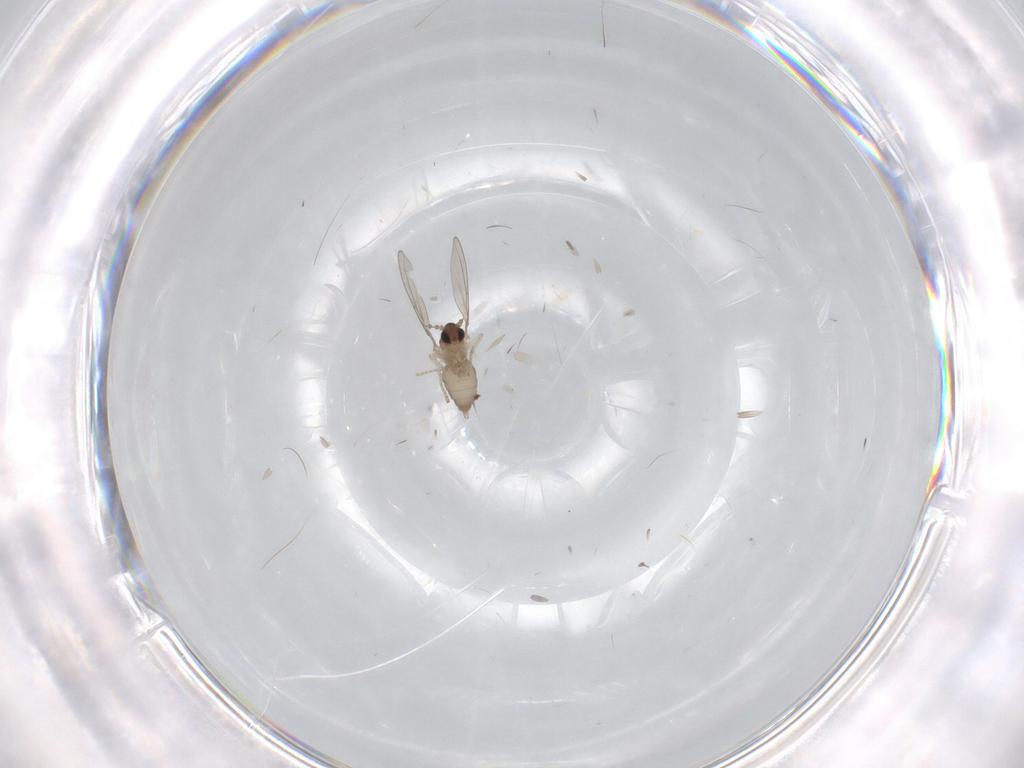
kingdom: Animalia
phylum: Arthropoda
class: Insecta
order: Diptera
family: Cecidomyiidae
